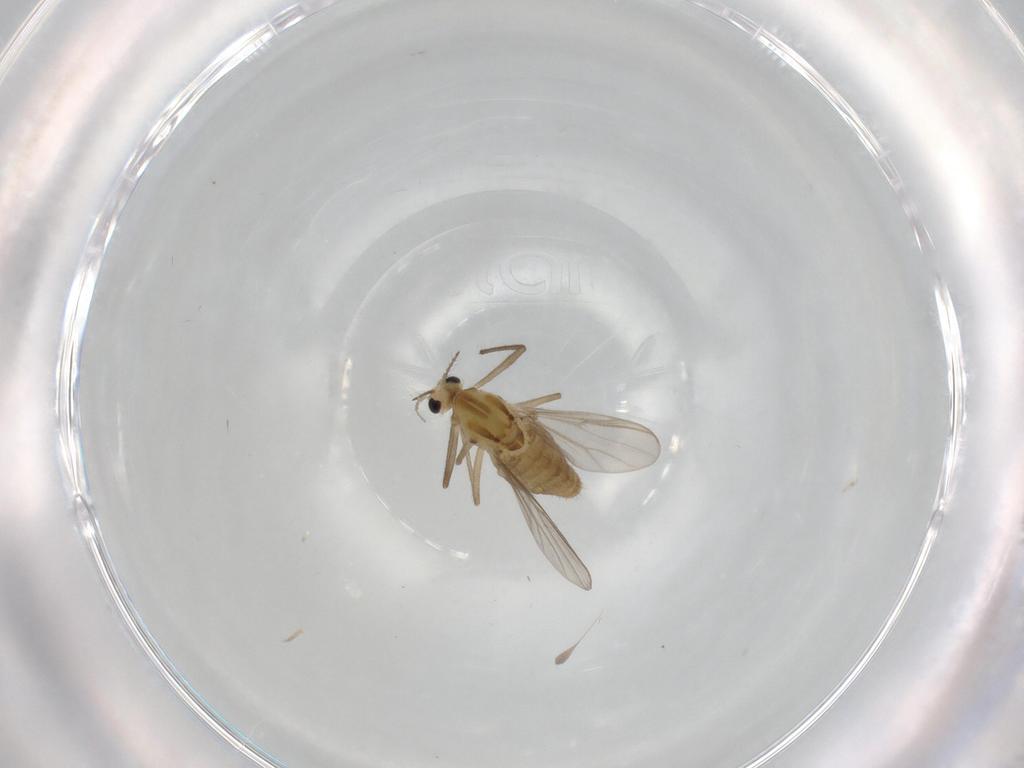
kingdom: Animalia
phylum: Arthropoda
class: Insecta
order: Diptera
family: Chironomidae
